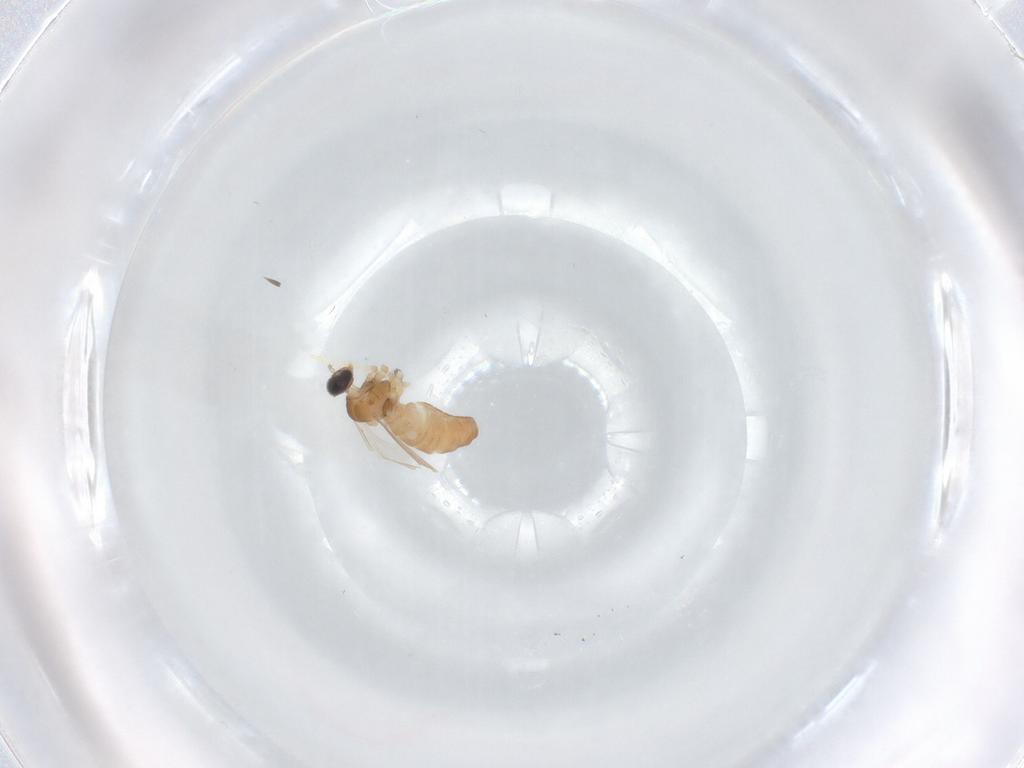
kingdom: Animalia
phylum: Arthropoda
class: Insecta
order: Diptera
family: Cecidomyiidae
